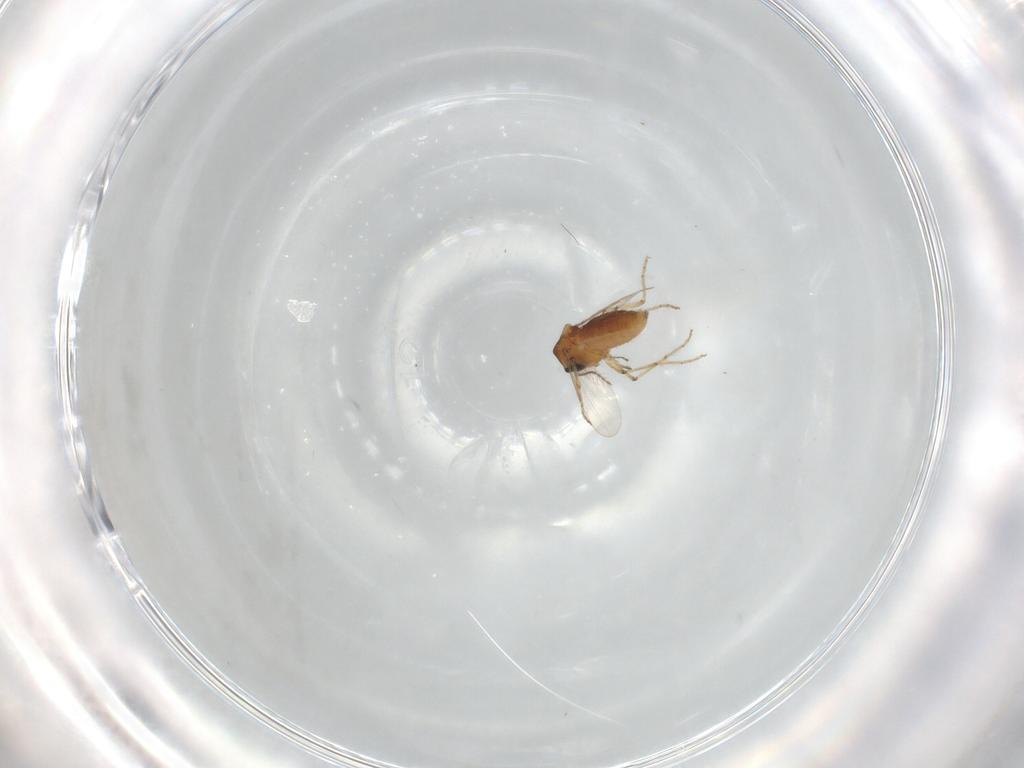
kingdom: Animalia
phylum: Arthropoda
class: Insecta
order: Diptera
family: Ceratopogonidae
